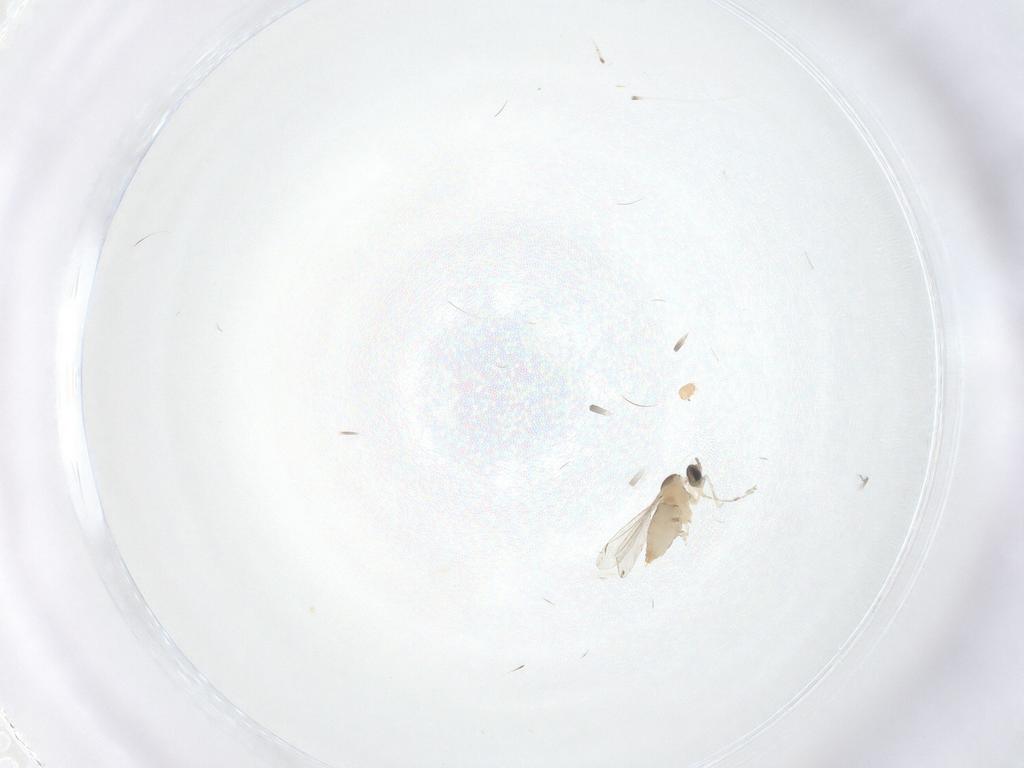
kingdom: Animalia
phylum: Arthropoda
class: Insecta
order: Diptera
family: Cecidomyiidae
